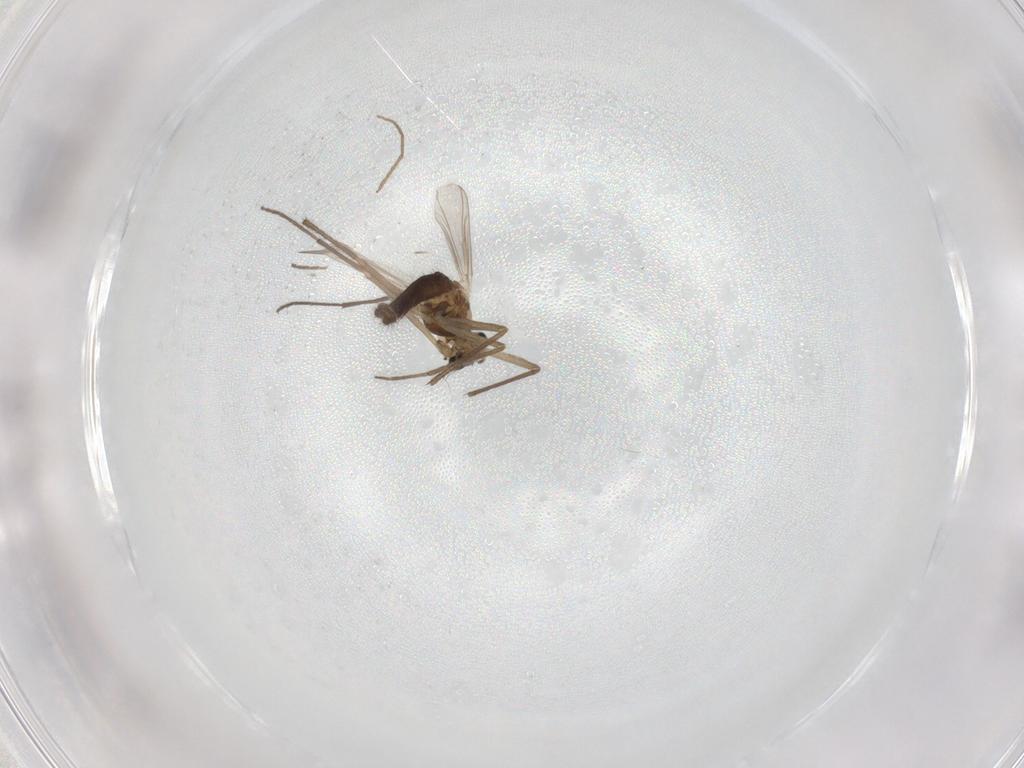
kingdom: Animalia
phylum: Arthropoda
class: Insecta
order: Diptera
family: Chironomidae
